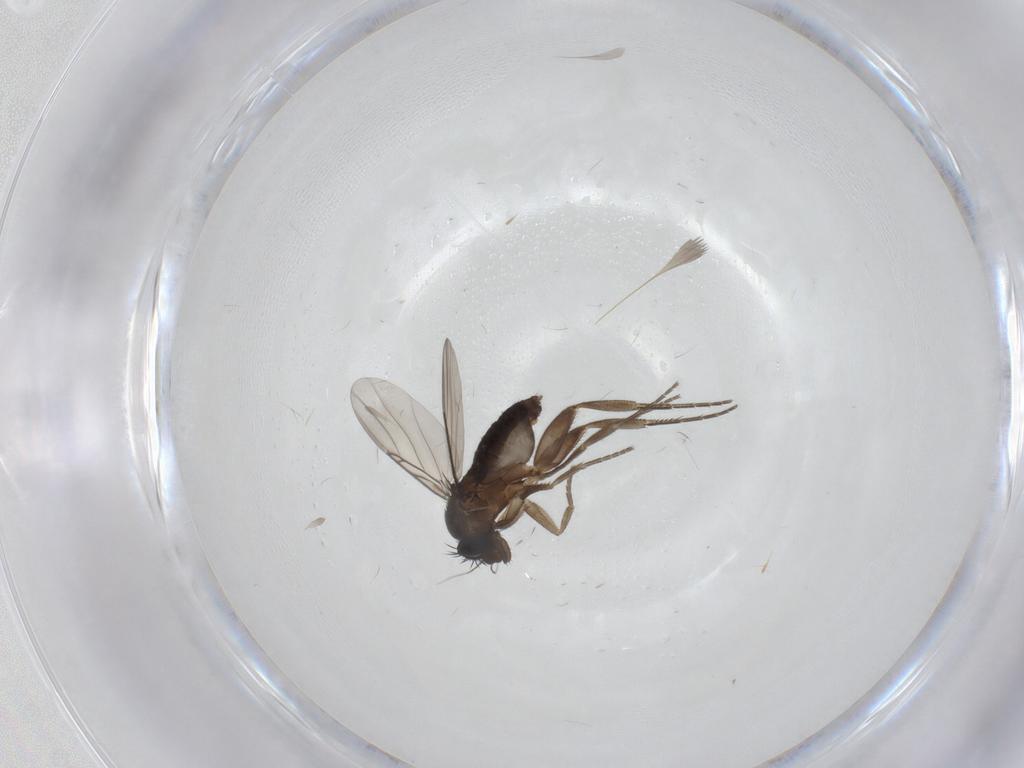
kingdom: Animalia
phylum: Arthropoda
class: Insecta
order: Diptera
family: Phoridae
